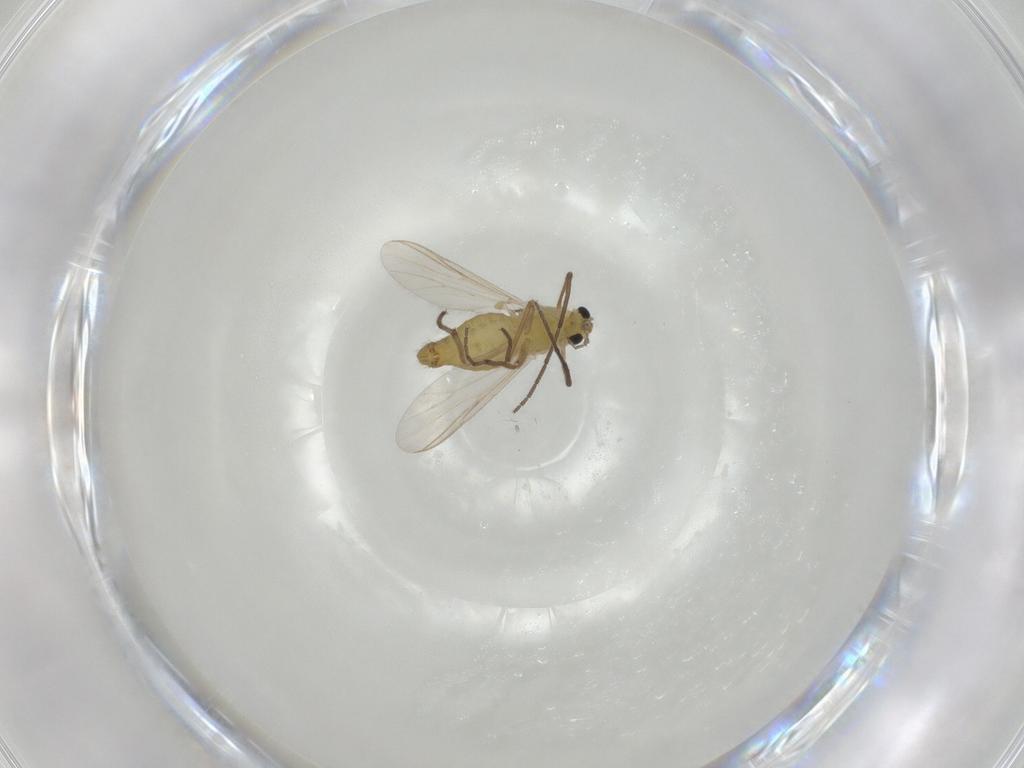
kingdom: Animalia
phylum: Arthropoda
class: Insecta
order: Diptera
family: Chironomidae
